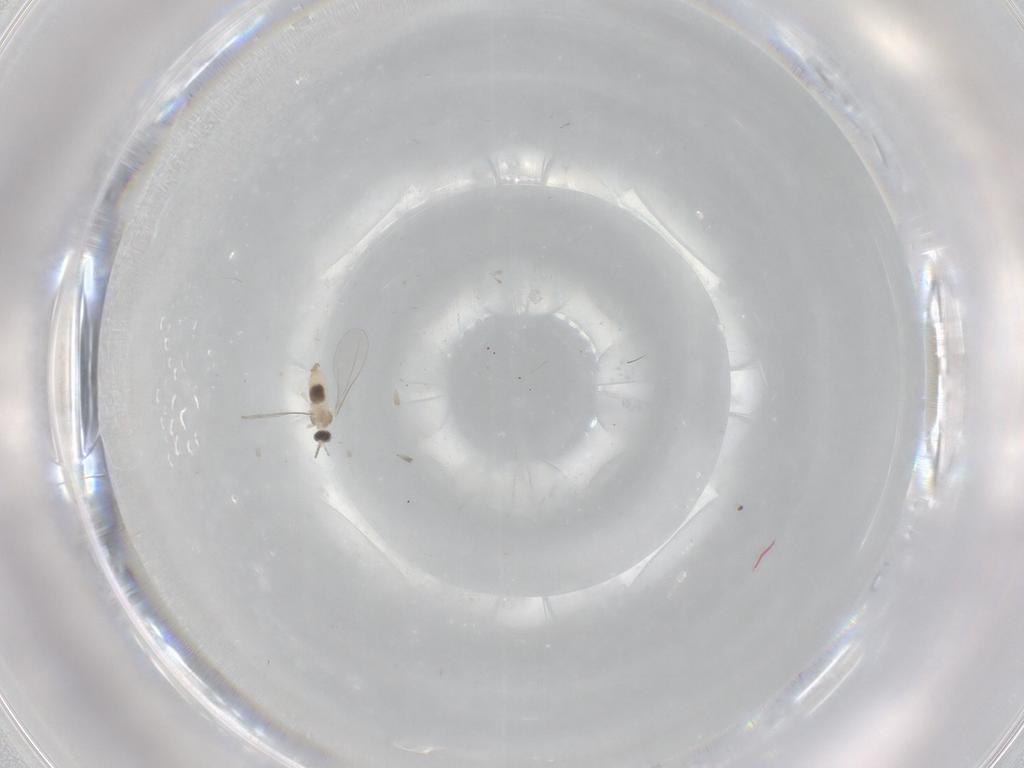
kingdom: Animalia
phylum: Arthropoda
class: Insecta
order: Diptera
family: Cecidomyiidae
